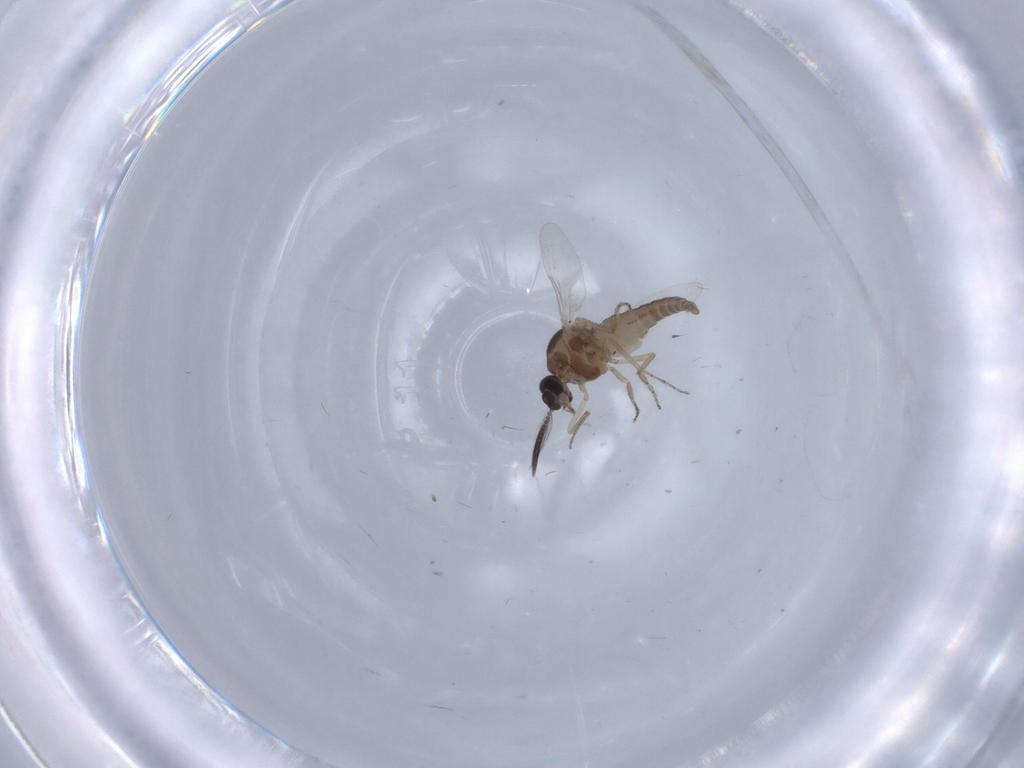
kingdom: Animalia
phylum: Arthropoda
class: Insecta
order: Diptera
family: Ceratopogonidae
